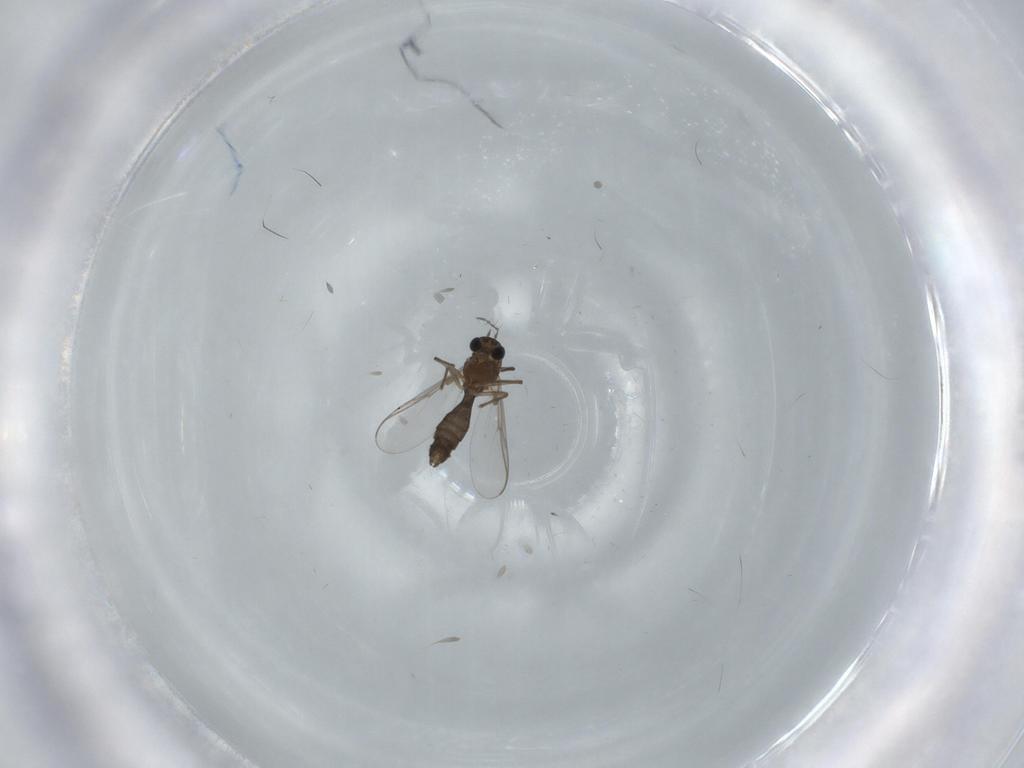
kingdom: Animalia
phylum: Arthropoda
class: Insecta
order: Diptera
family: Chironomidae
